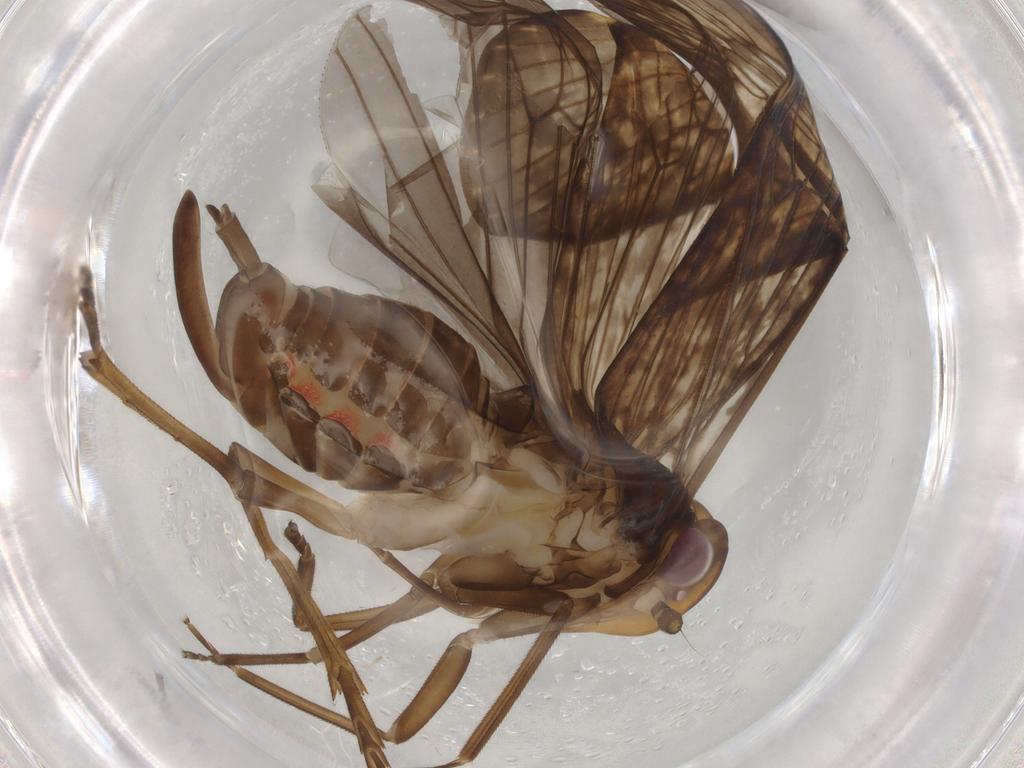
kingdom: Animalia
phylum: Arthropoda
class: Insecta
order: Hemiptera
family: Cixiidae
